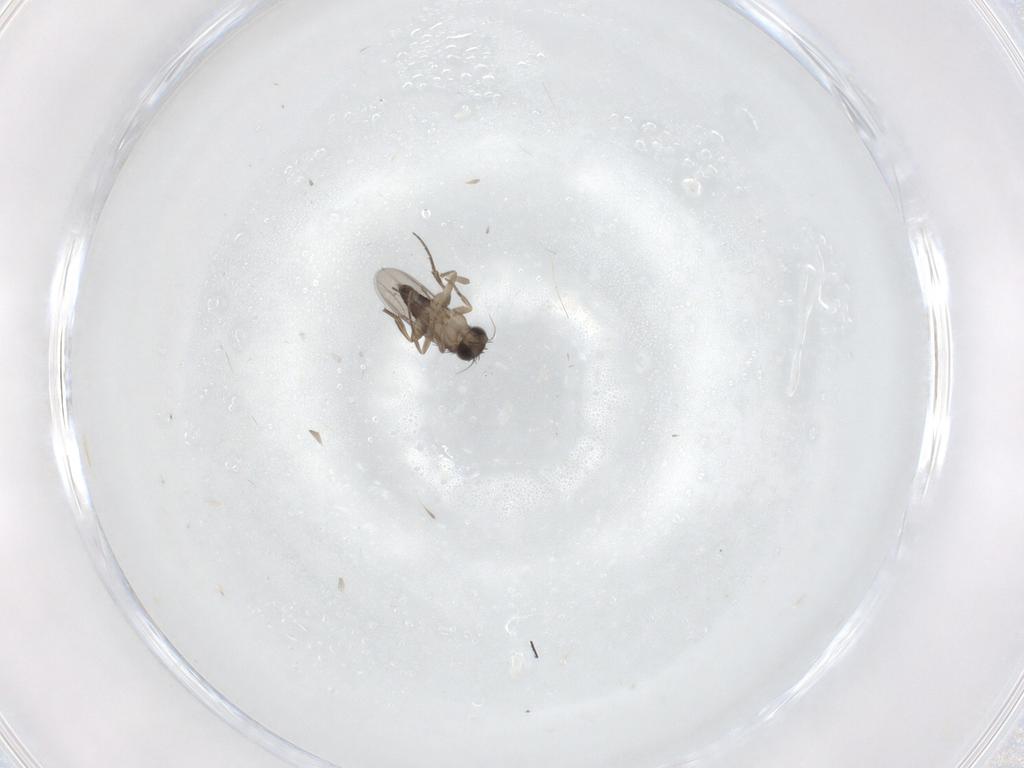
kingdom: Animalia
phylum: Arthropoda
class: Insecta
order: Diptera
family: Phoridae
